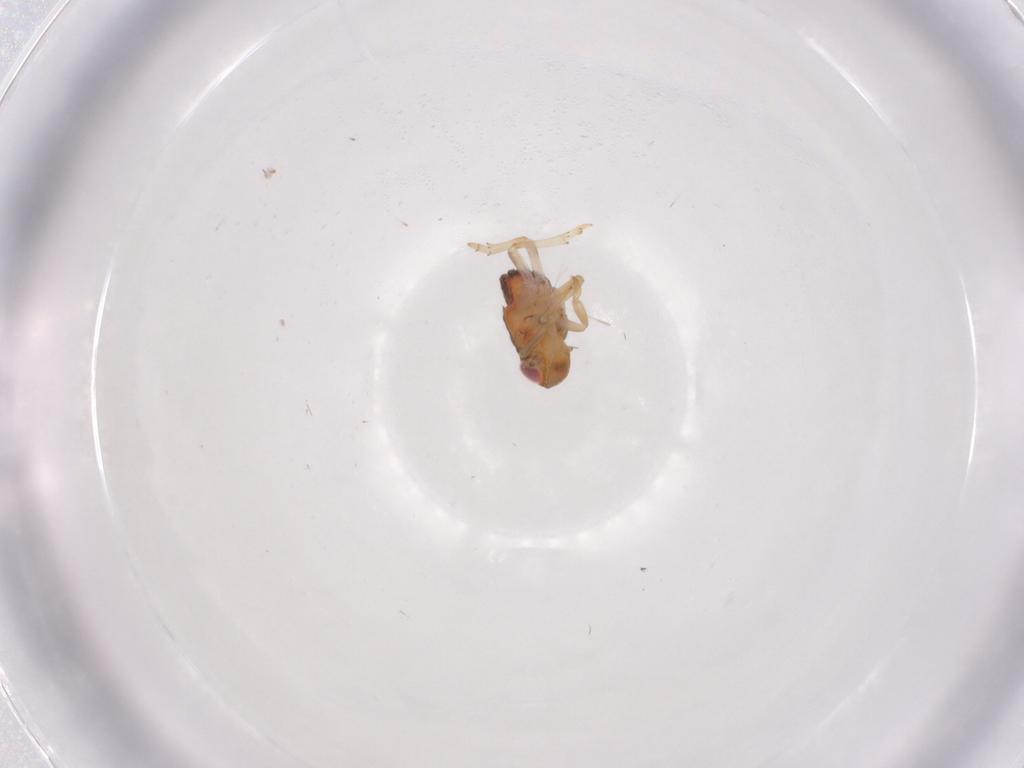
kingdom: Animalia
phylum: Arthropoda
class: Insecta
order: Hemiptera
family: Issidae
